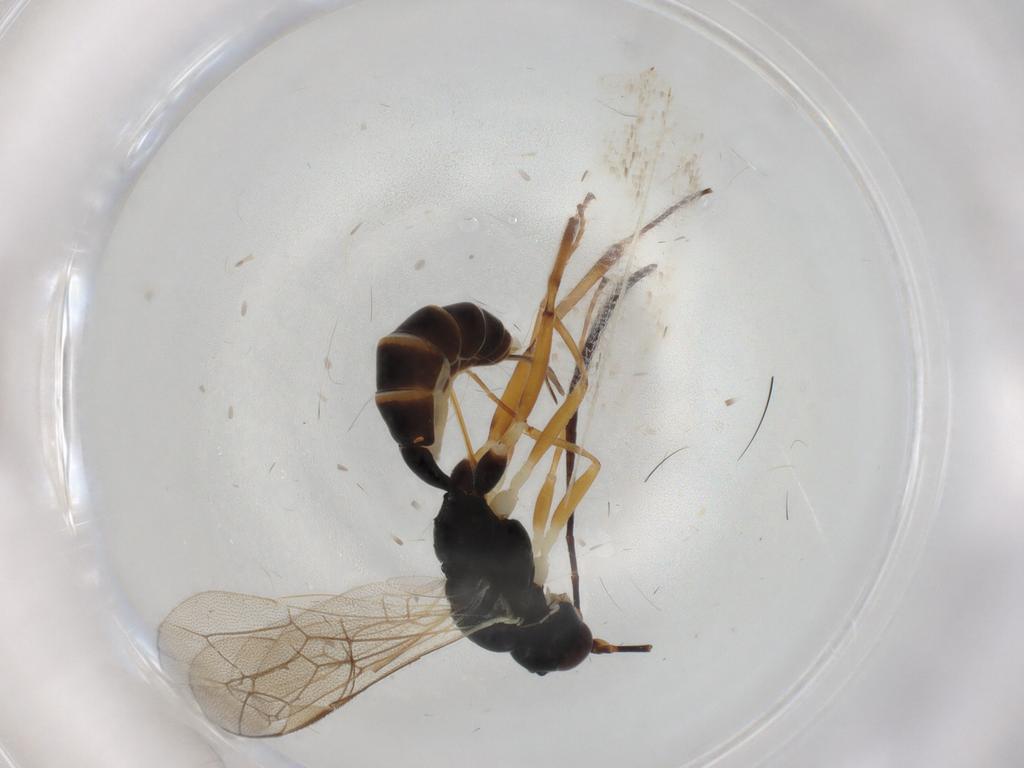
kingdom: Animalia
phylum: Arthropoda
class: Insecta
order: Hymenoptera
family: Ichneumonidae
